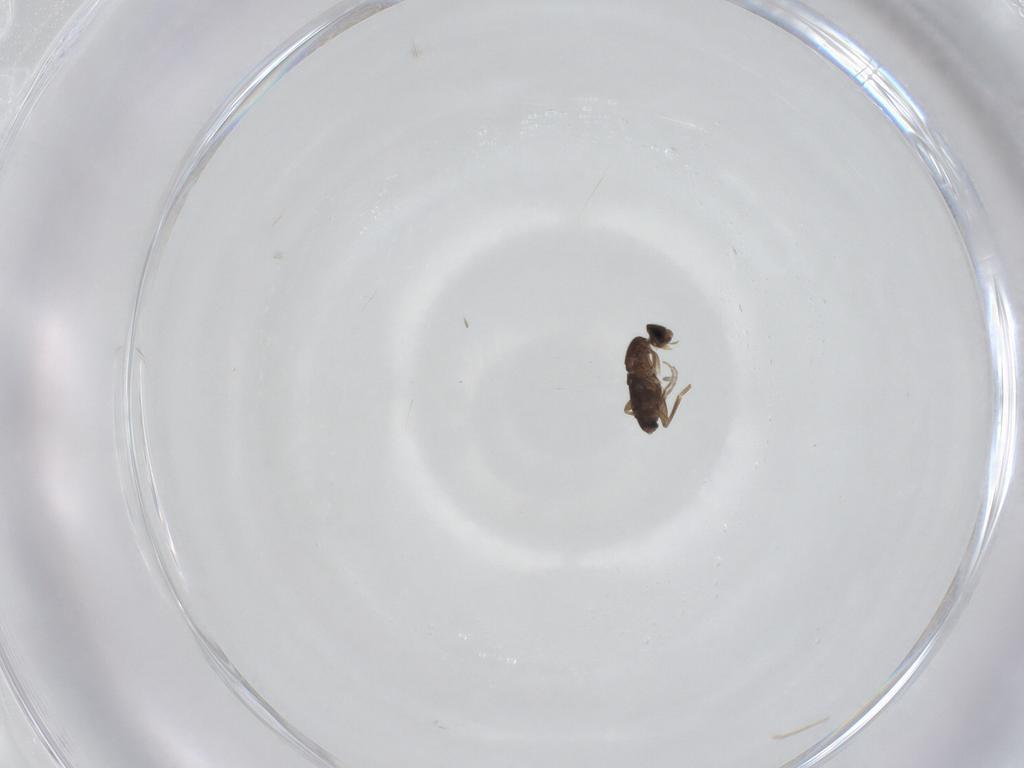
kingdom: Animalia
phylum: Arthropoda
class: Insecta
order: Diptera
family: Phoridae
